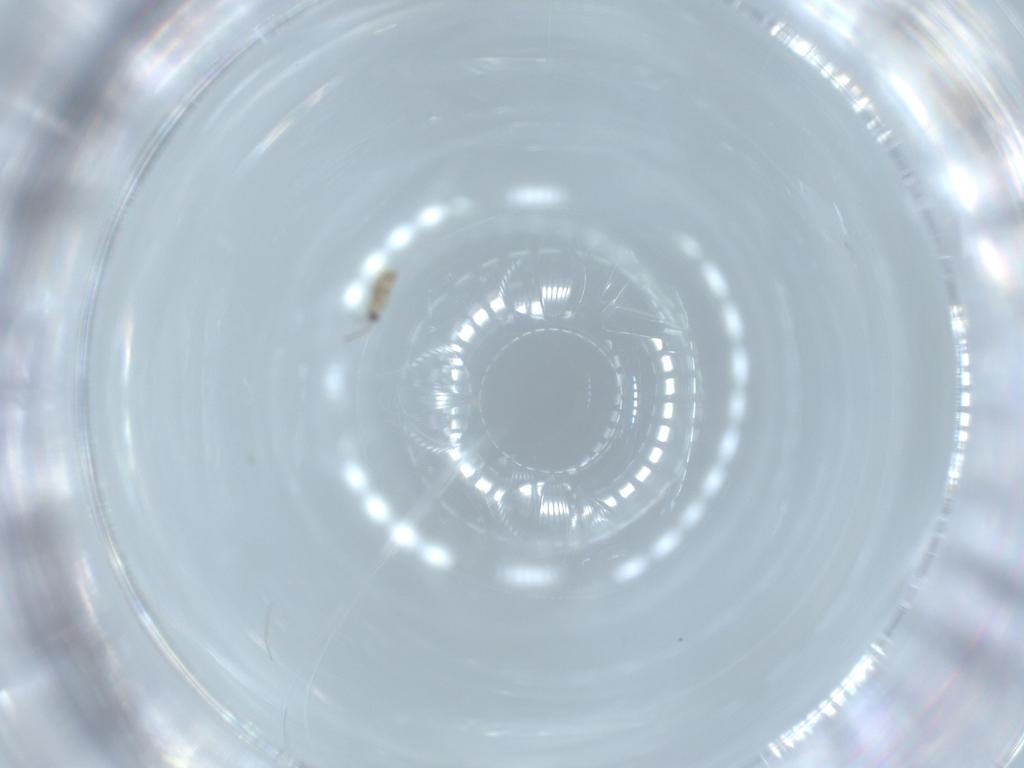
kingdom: Animalia
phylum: Arthropoda
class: Insecta
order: Hymenoptera
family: Mymaridae
